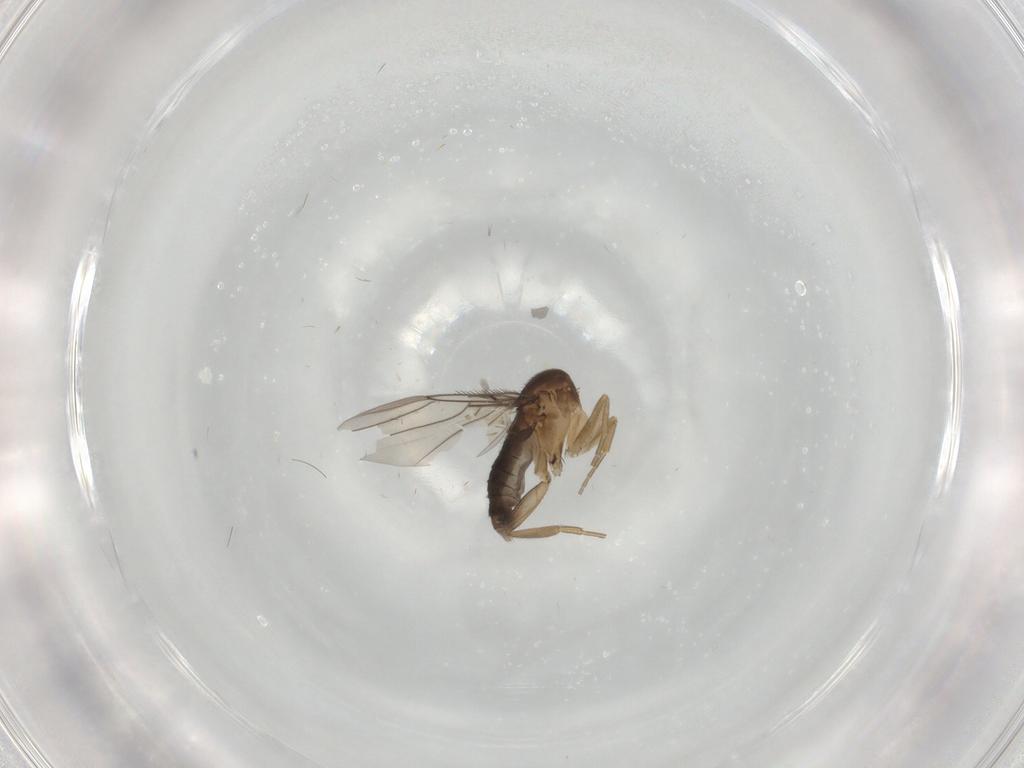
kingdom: Animalia
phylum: Arthropoda
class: Insecta
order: Diptera
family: Phoridae
